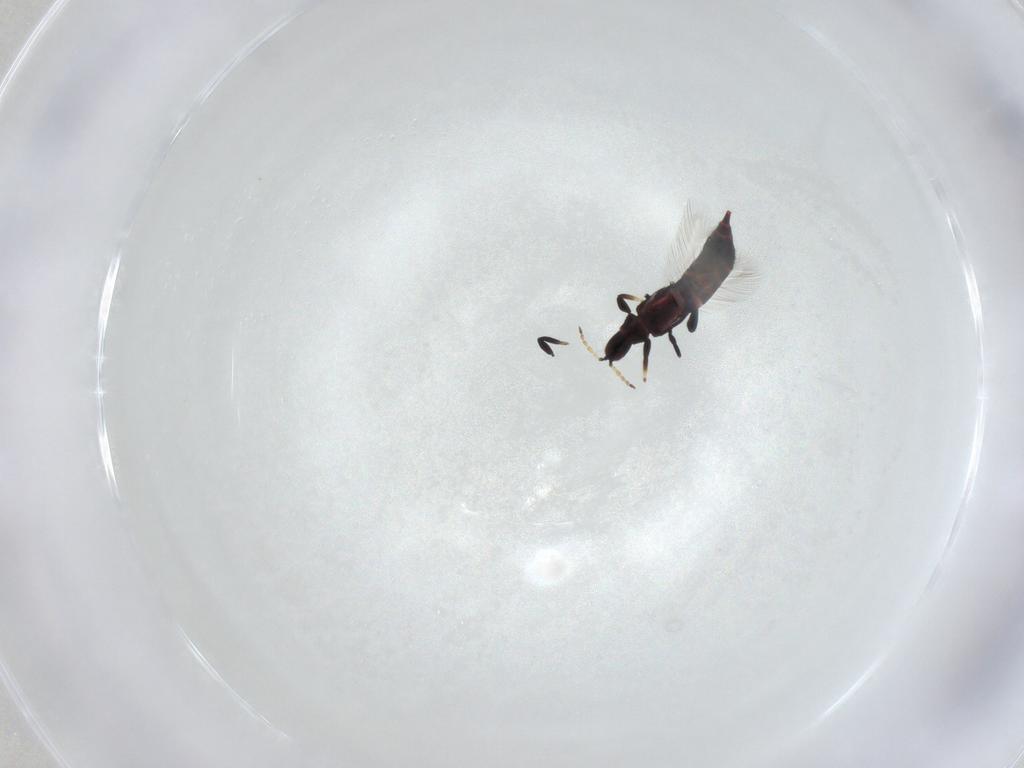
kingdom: Animalia
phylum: Arthropoda
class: Insecta
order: Thysanoptera
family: Phlaeothripidae
